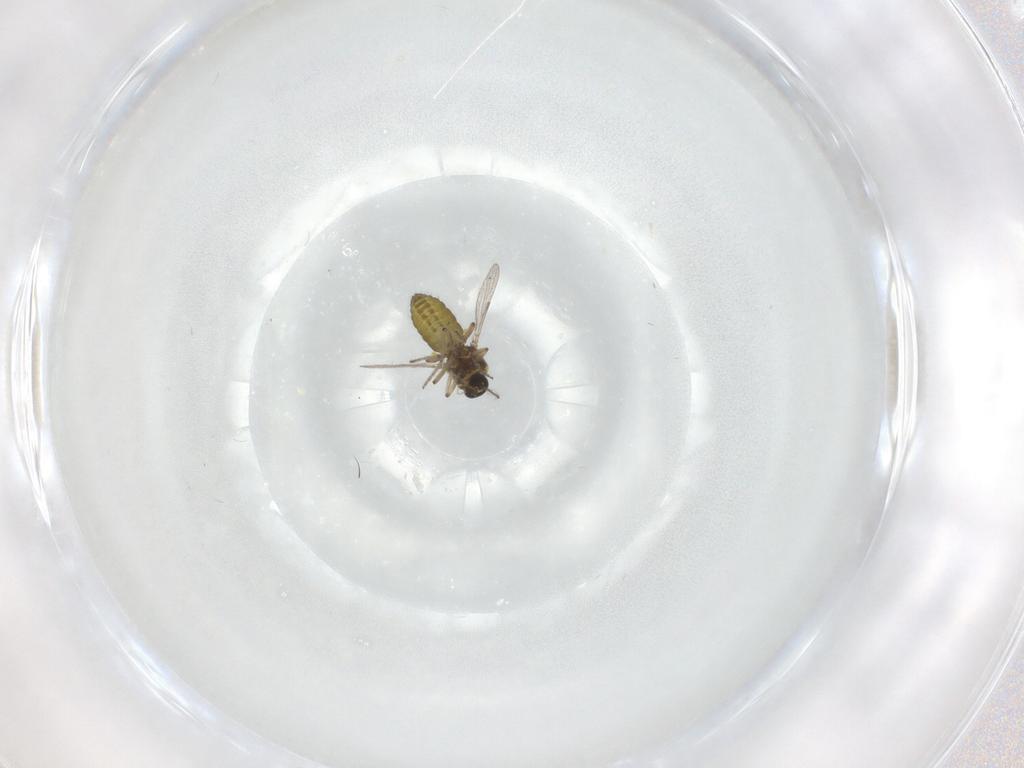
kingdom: Animalia
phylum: Arthropoda
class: Insecta
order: Diptera
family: Ceratopogonidae
